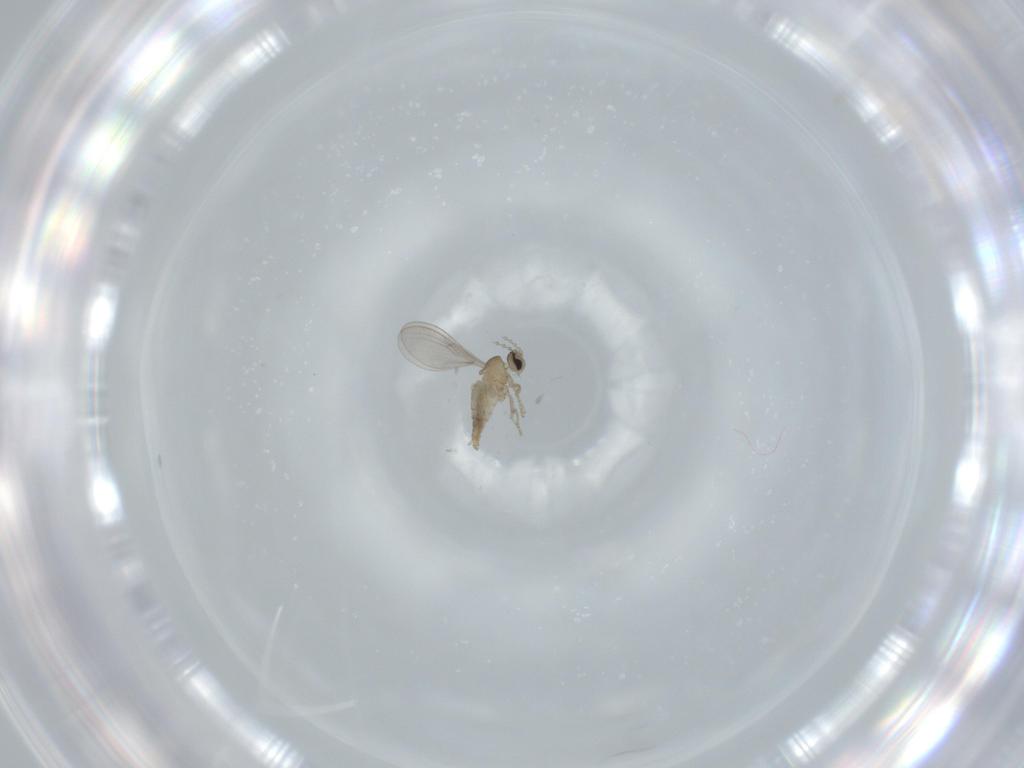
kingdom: Animalia
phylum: Arthropoda
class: Insecta
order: Diptera
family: Cecidomyiidae
